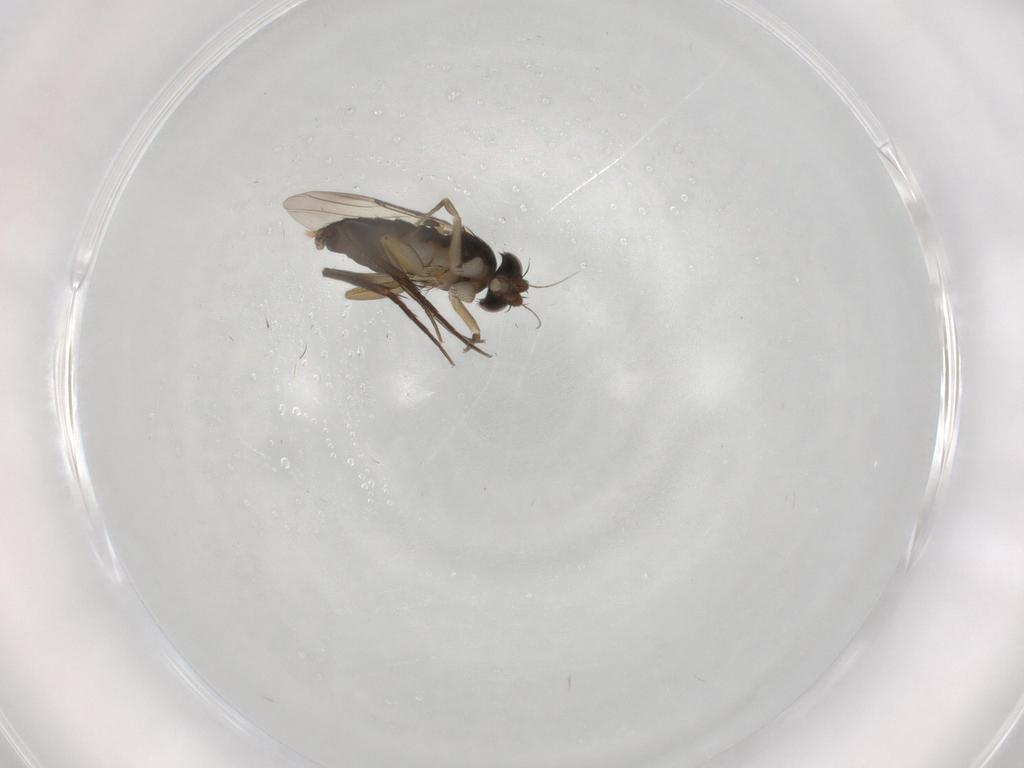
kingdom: Animalia
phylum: Arthropoda
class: Insecta
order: Diptera
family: Phoridae
